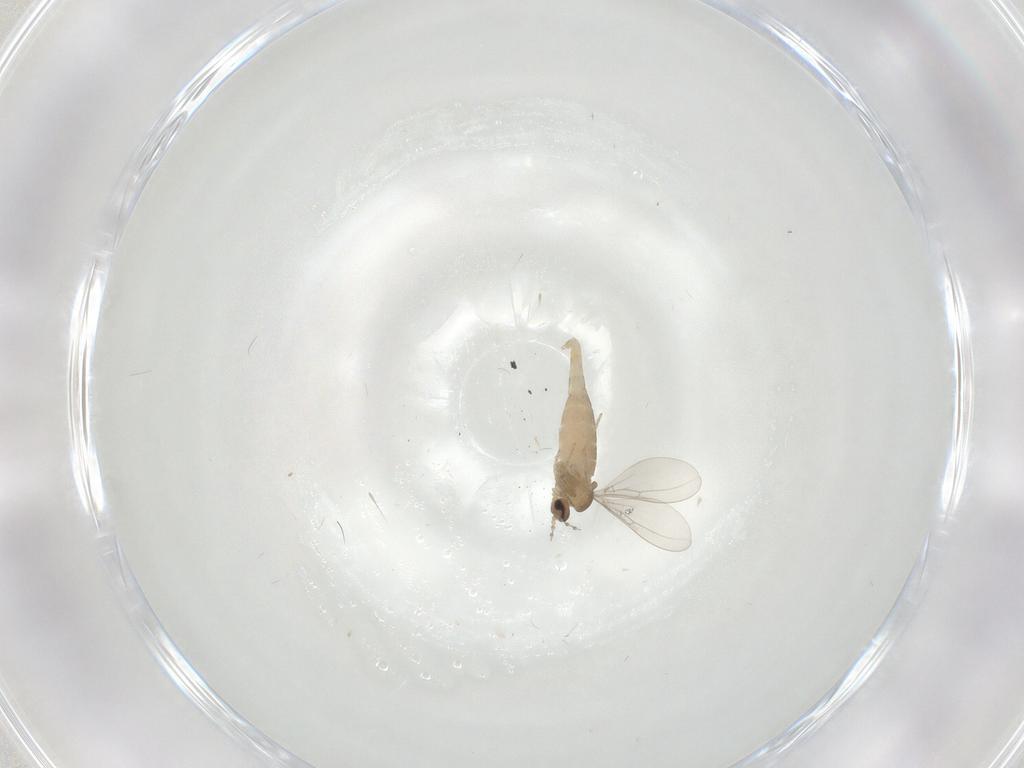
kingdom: Animalia
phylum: Arthropoda
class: Insecta
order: Diptera
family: Cecidomyiidae
